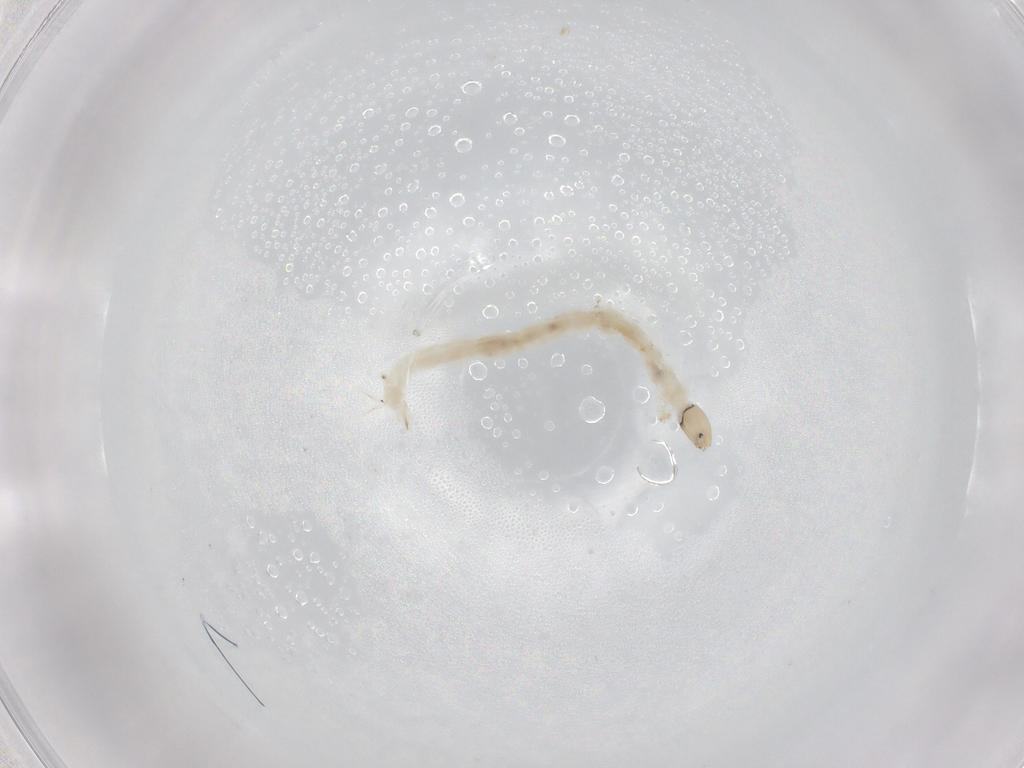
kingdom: Animalia
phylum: Arthropoda
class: Insecta
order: Diptera
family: Chironomidae
